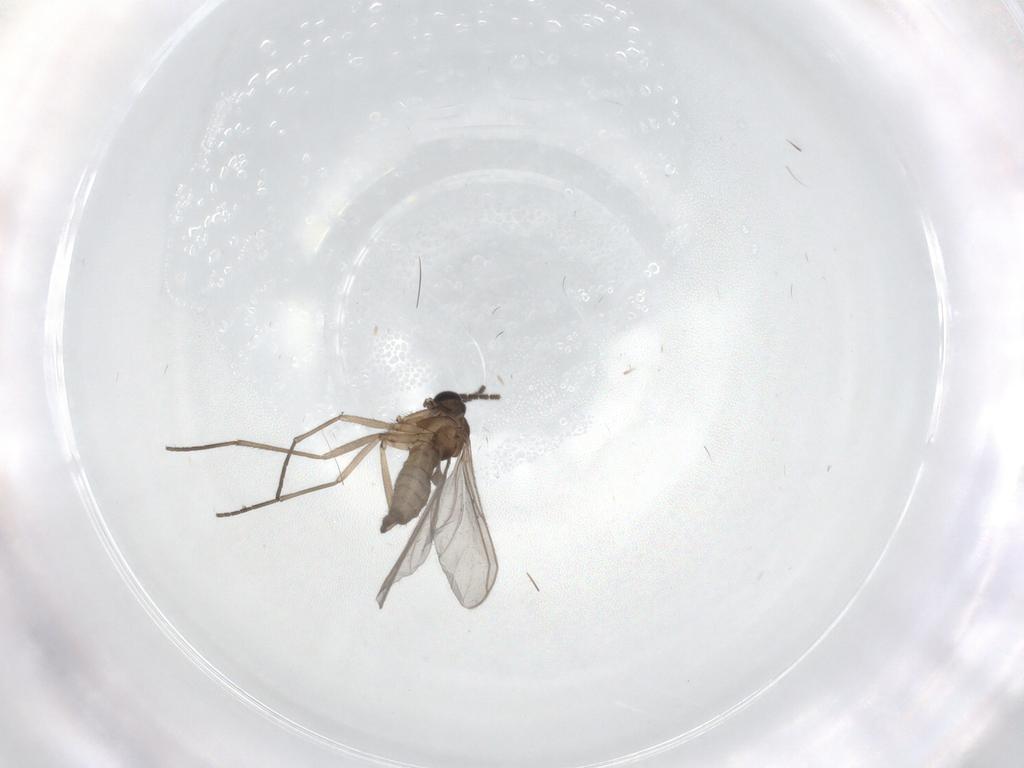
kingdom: Animalia
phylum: Arthropoda
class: Insecta
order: Diptera
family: Sciaridae
